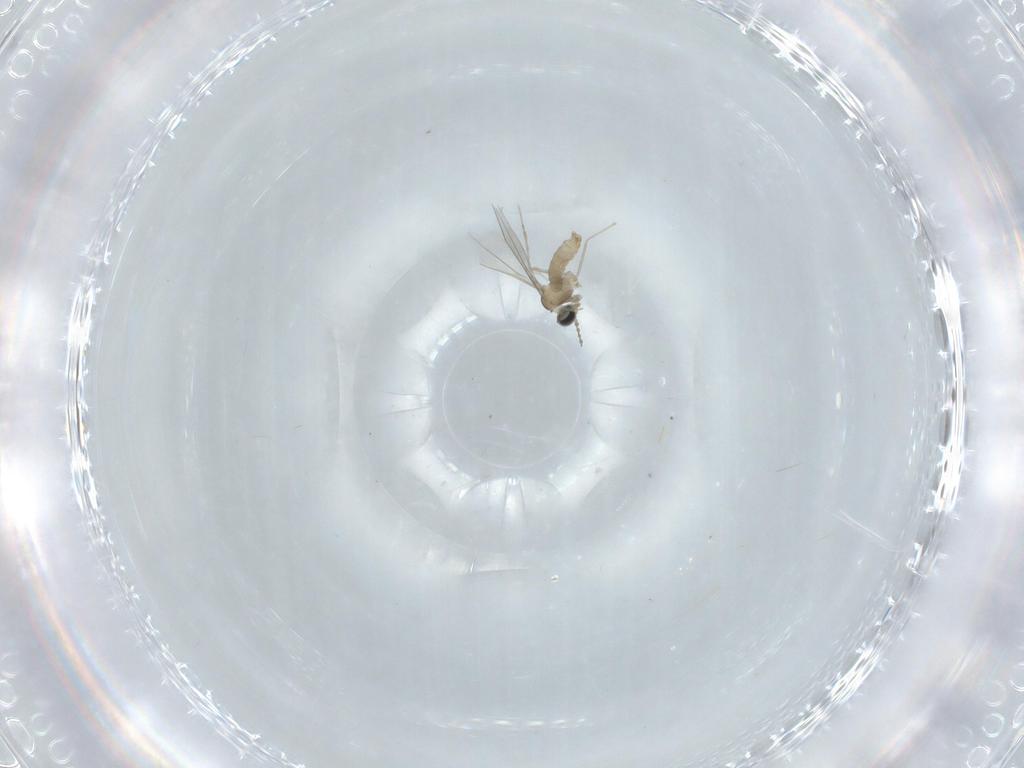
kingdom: Animalia
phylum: Arthropoda
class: Insecta
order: Diptera
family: Cecidomyiidae
